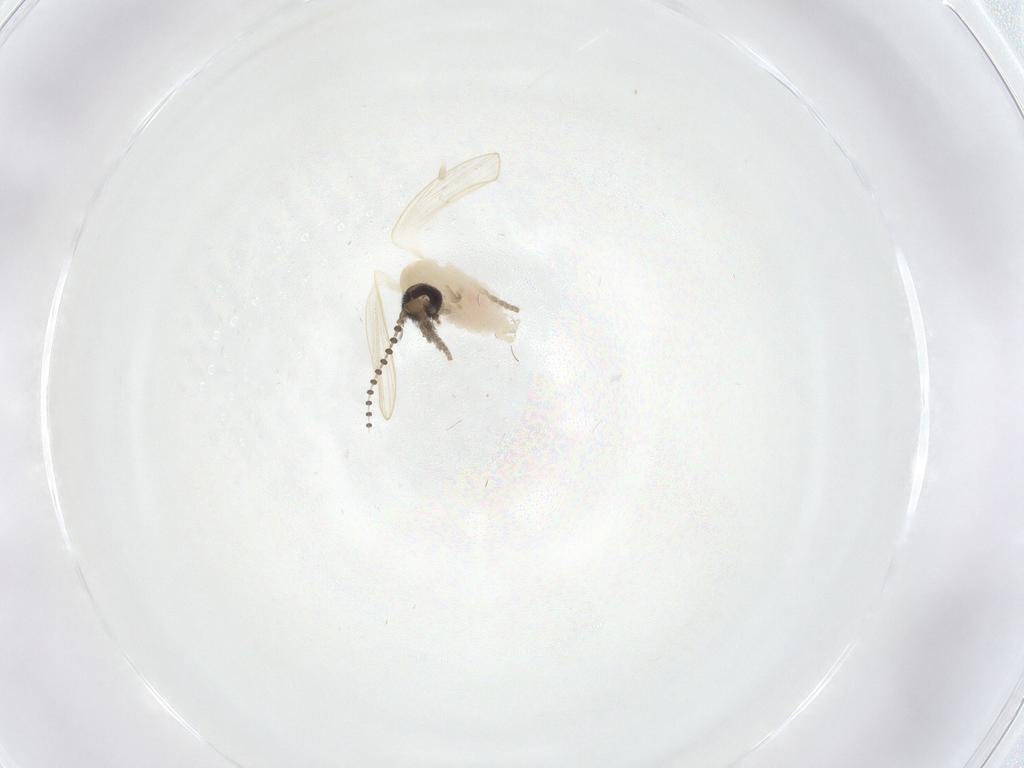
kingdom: Animalia
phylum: Arthropoda
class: Insecta
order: Diptera
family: Psychodidae
